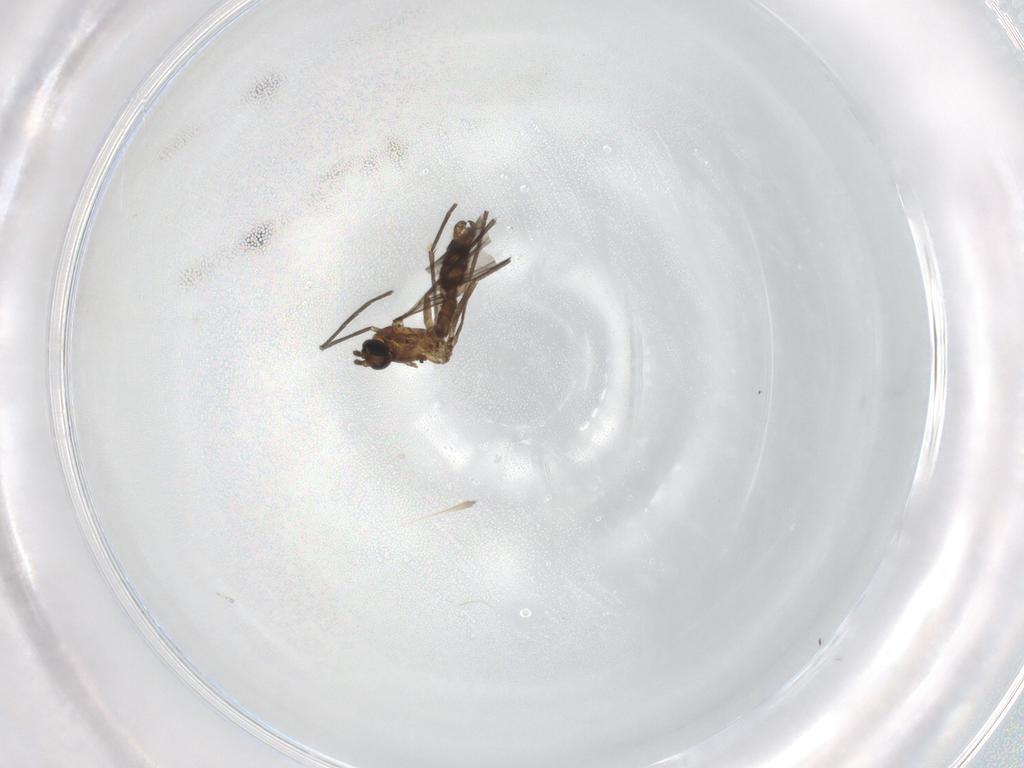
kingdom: Animalia
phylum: Arthropoda
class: Insecta
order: Diptera
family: Sciaridae
